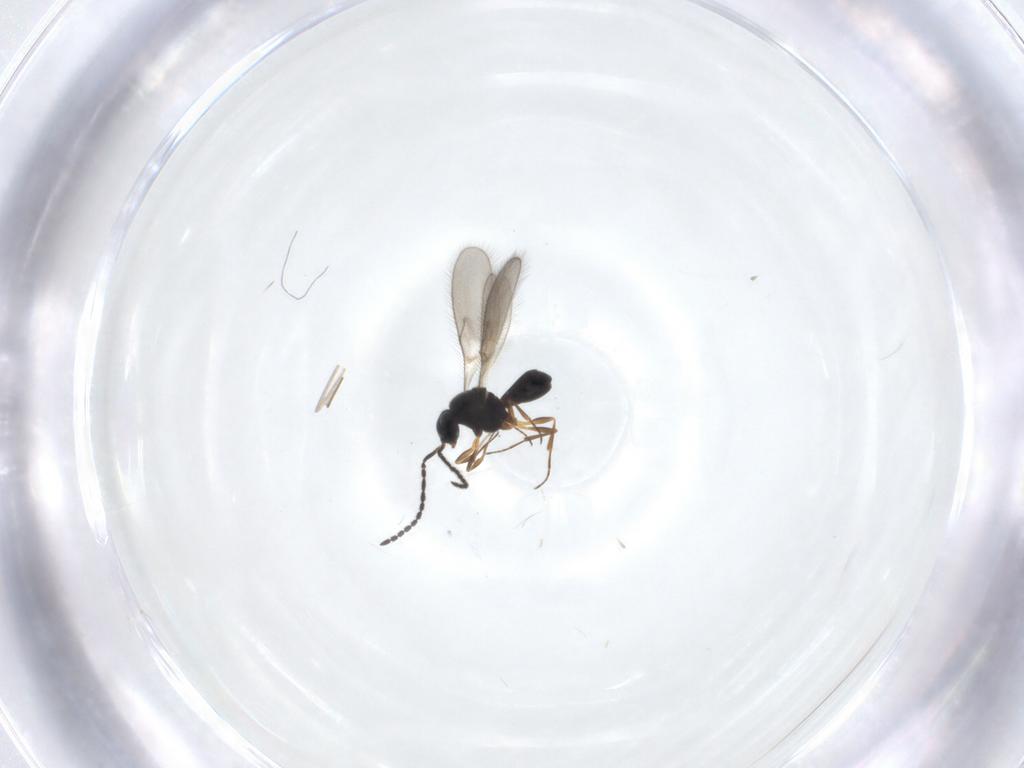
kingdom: Animalia
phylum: Arthropoda
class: Insecta
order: Hymenoptera
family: Scelionidae
